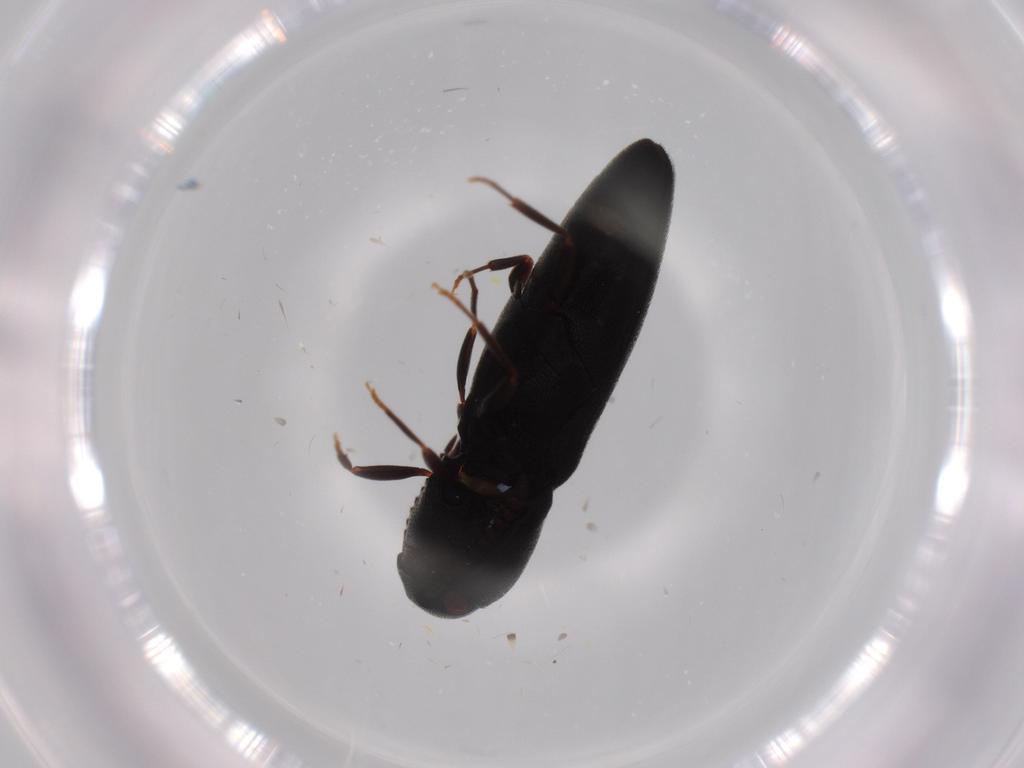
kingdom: Animalia
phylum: Arthropoda
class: Insecta
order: Coleoptera
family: Eucnemidae
